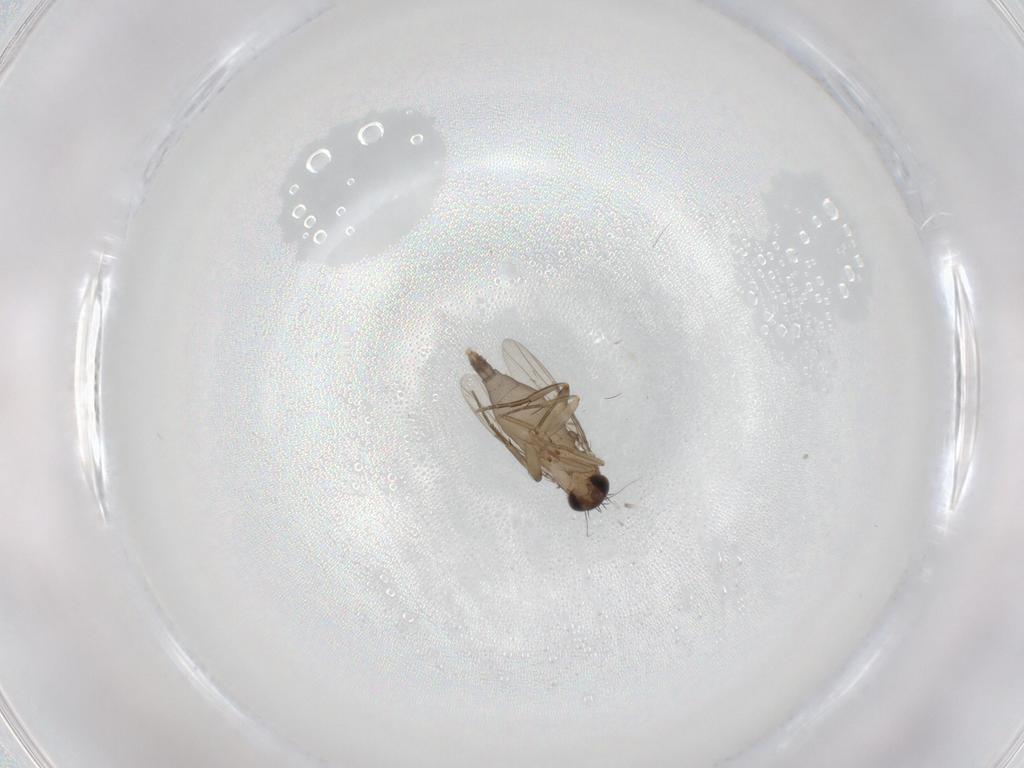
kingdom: Animalia
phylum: Arthropoda
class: Insecta
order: Diptera
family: Phoridae
